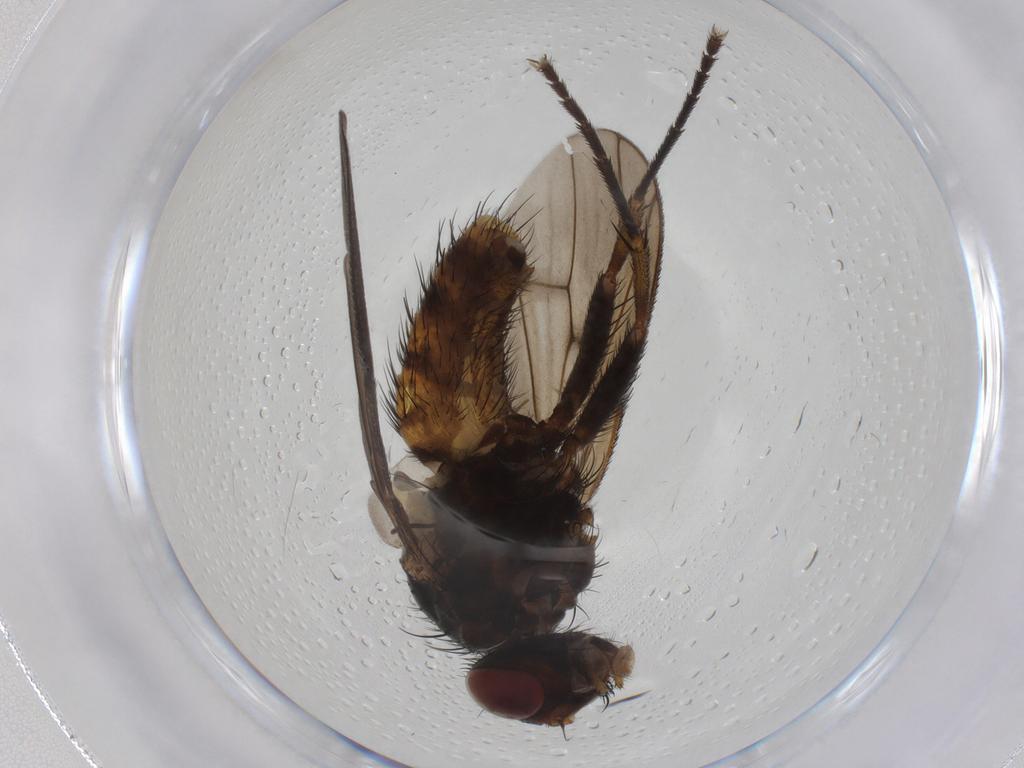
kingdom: Animalia
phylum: Arthropoda
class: Insecta
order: Diptera
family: Muscidae
